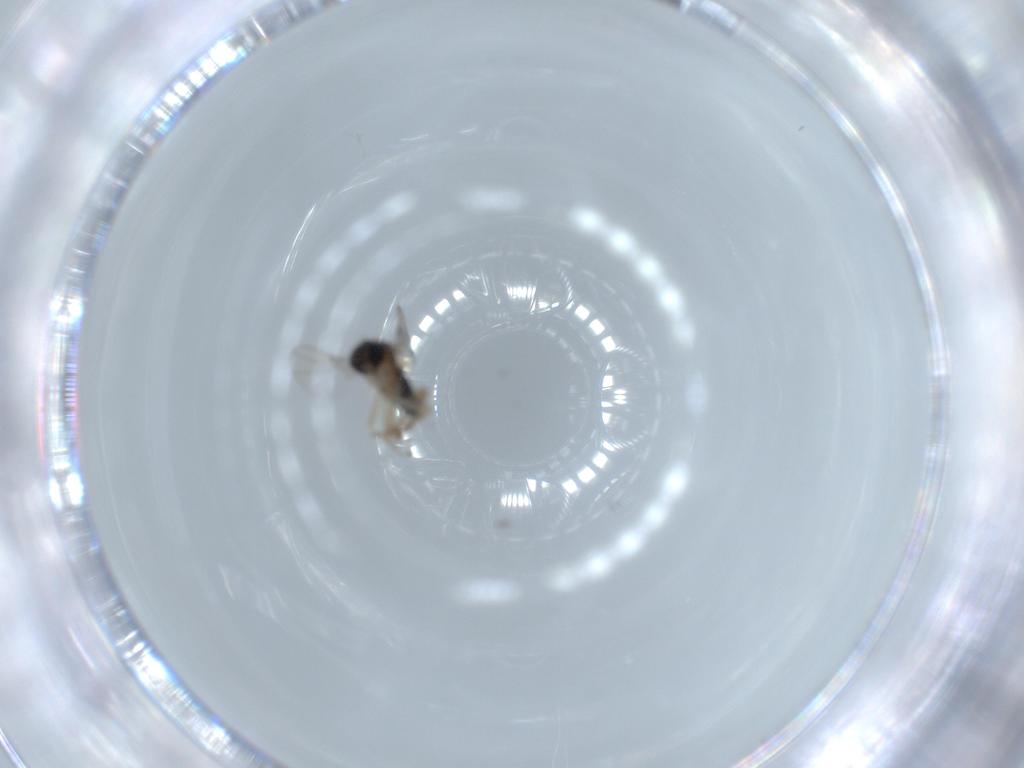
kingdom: Animalia
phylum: Arthropoda
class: Insecta
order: Diptera
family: Phoridae
